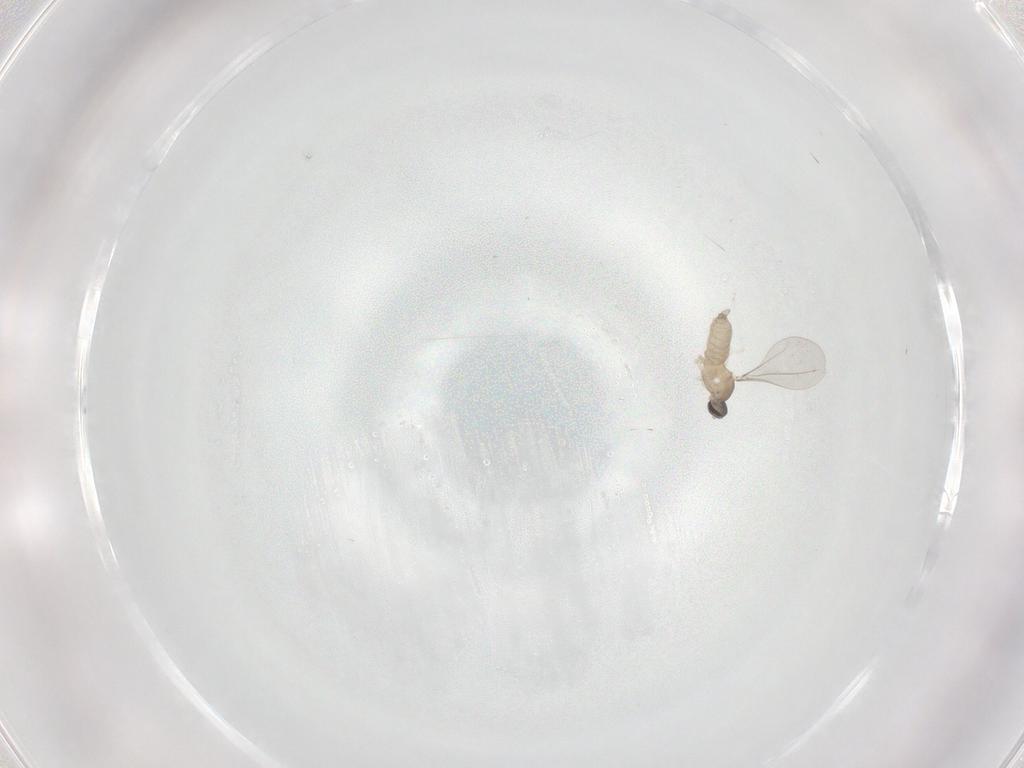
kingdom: Animalia
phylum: Arthropoda
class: Insecta
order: Diptera
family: Cecidomyiidae
